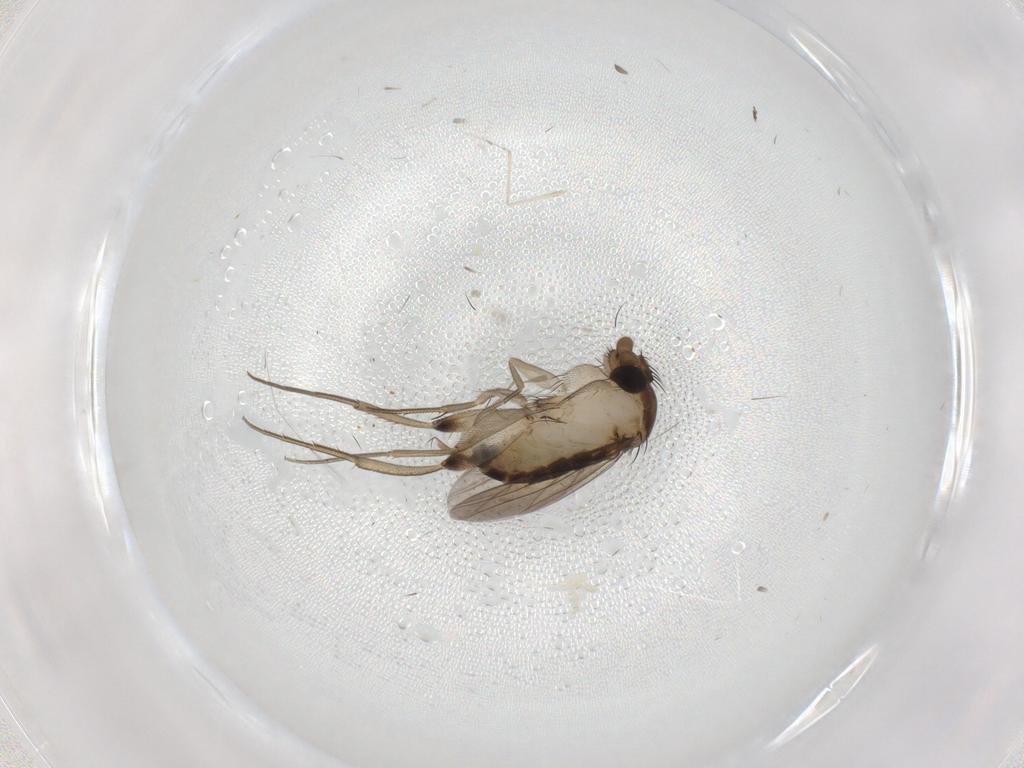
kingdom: Animalia
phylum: Arthropoda
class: Insecta
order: Diptera
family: Phoridae
